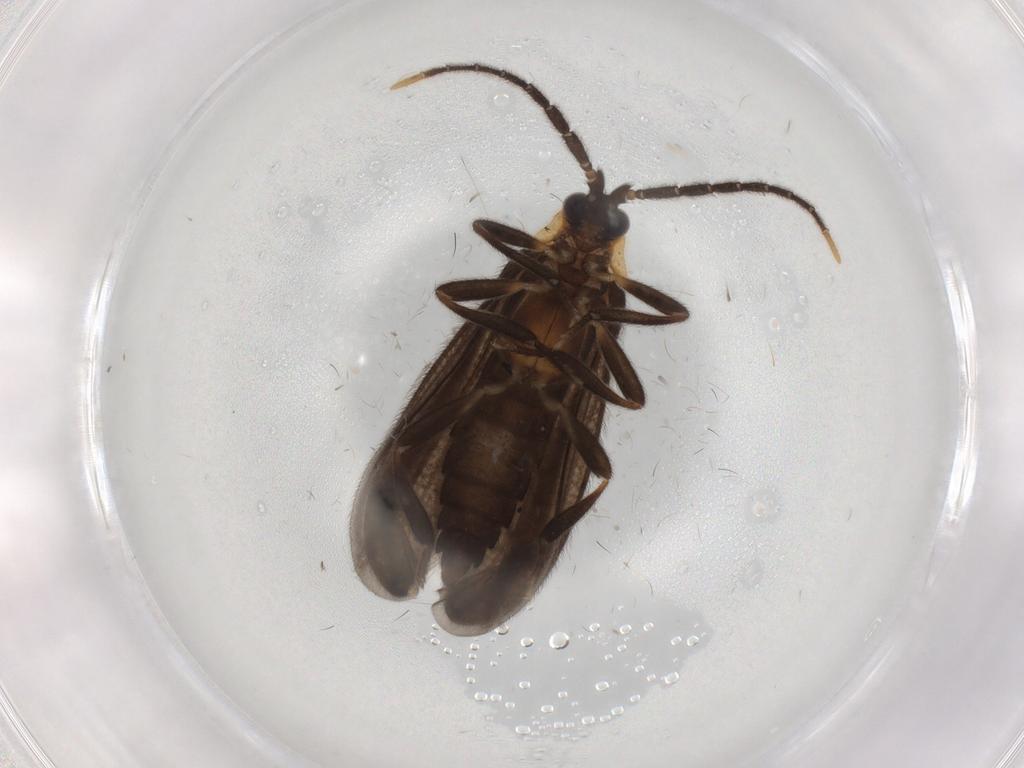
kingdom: Animalia
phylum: Arthropoda
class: Insecta
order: Coleoptera
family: Lycidae
